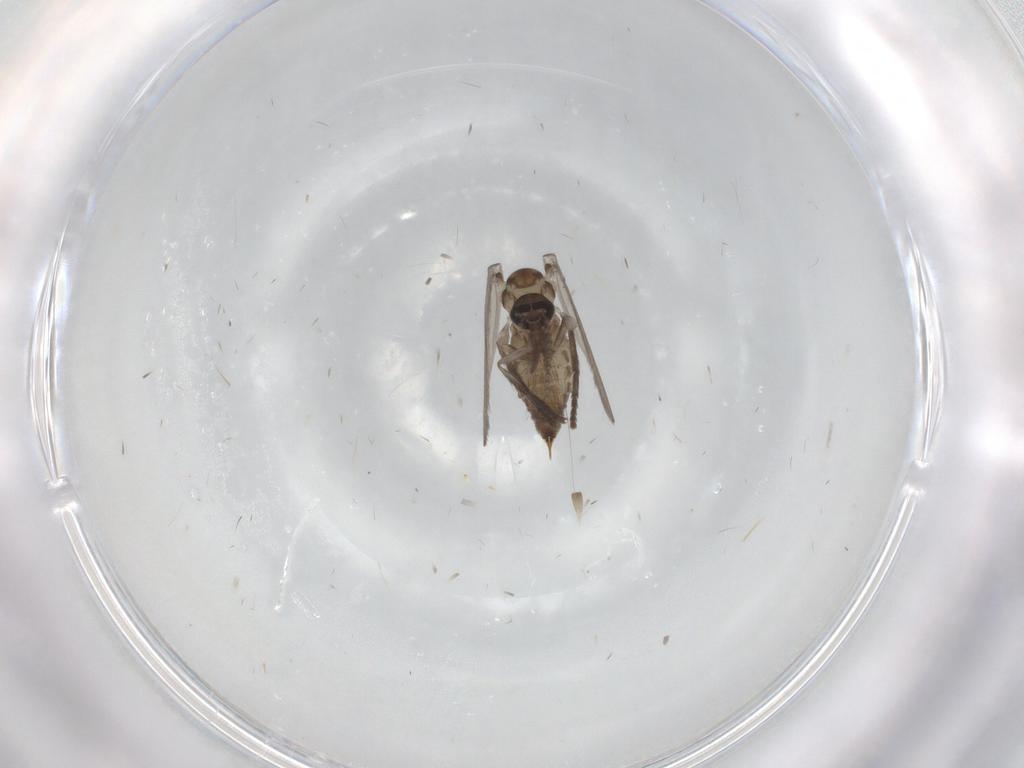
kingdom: Animalia
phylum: Arthropoda
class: Insecta
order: Diptera
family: Psychodidae
